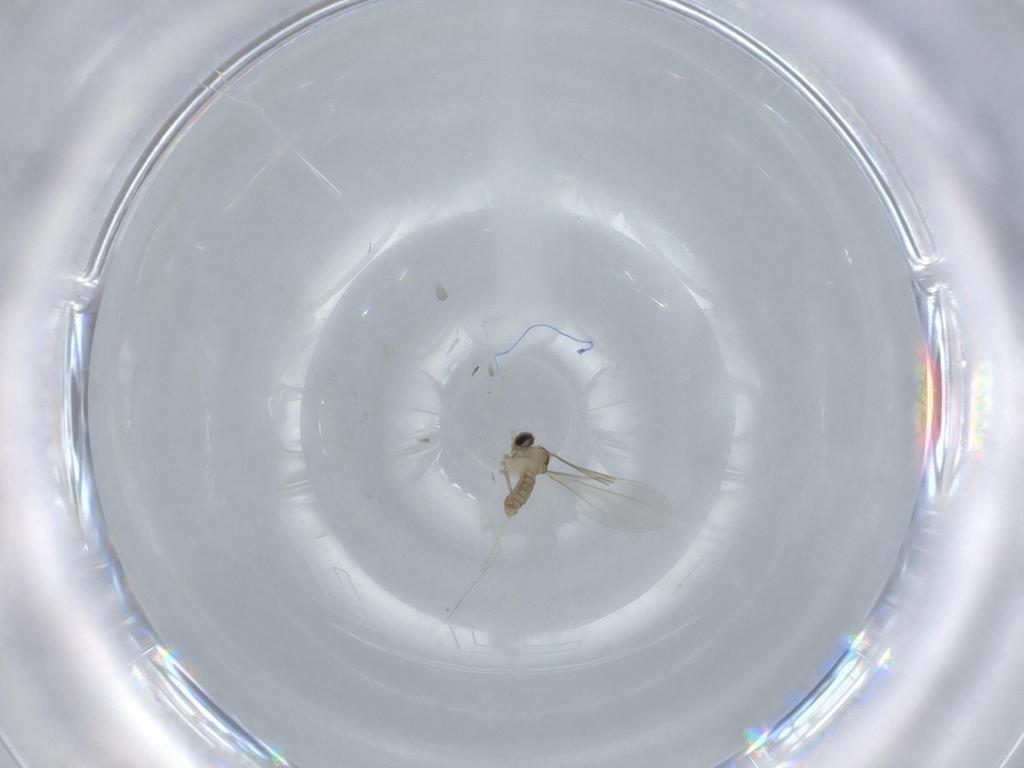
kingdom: Animalia
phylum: Arthropoda
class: Insecta
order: Diptera
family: Cecidomyiidae
